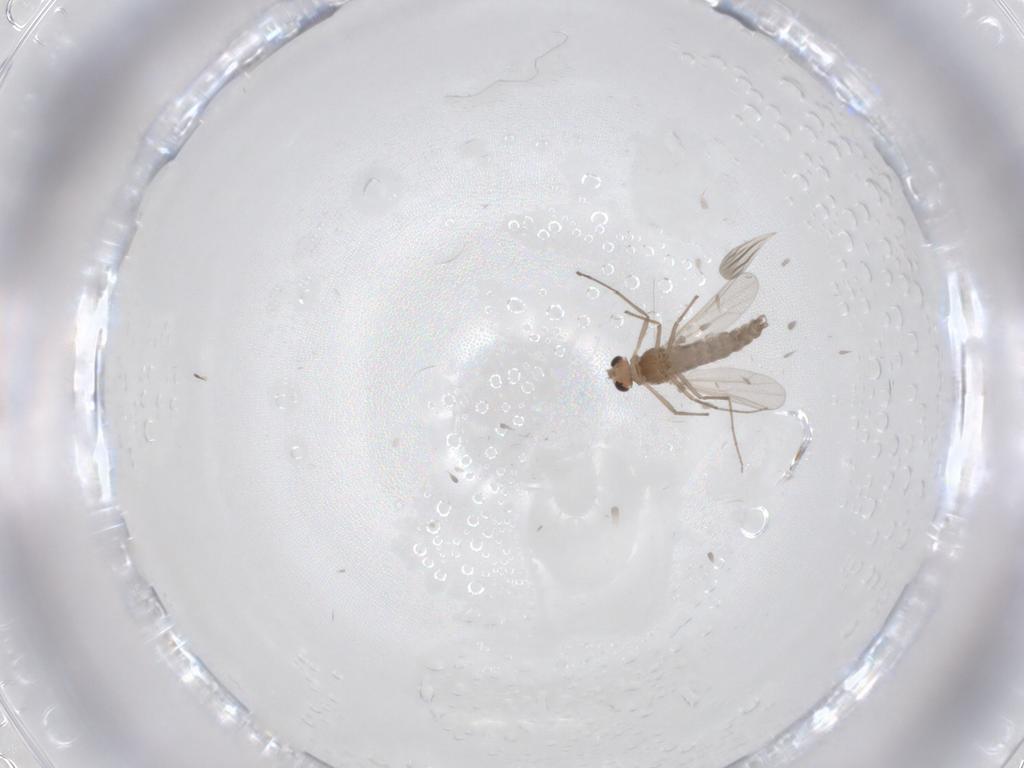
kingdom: Animalia
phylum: Arthropoda
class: Insecta
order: Diptera
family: Chironomidae
